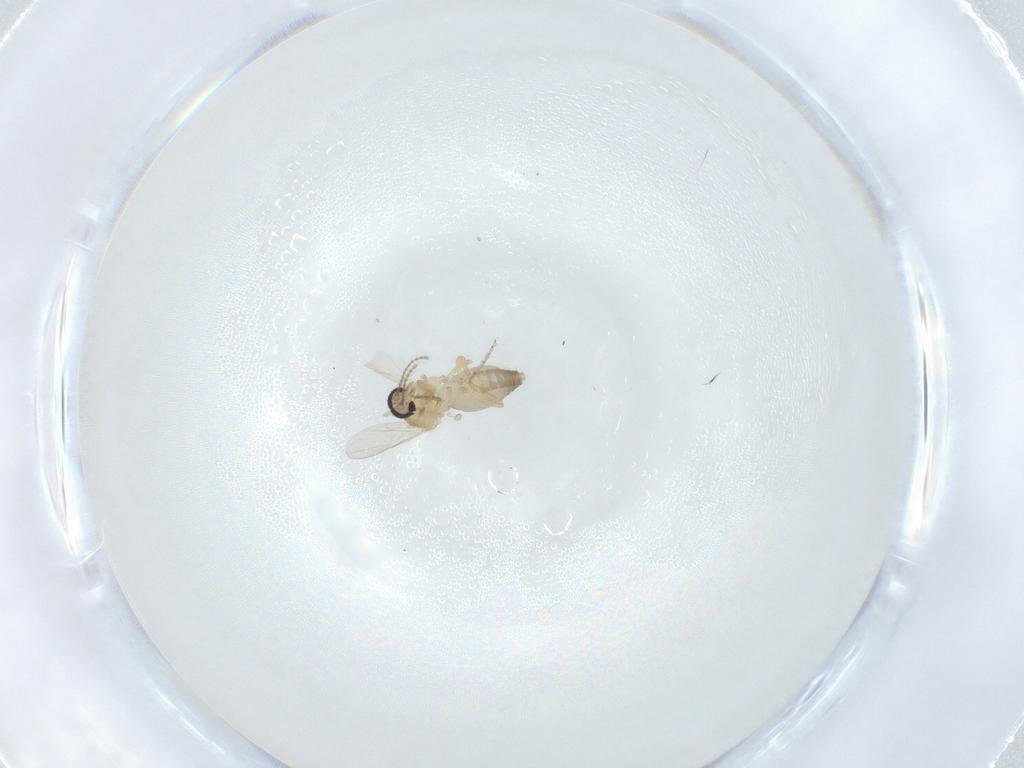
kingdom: Animalia
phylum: Arthropoda
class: Insecta
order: Diptera
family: Ceratopogonidae
